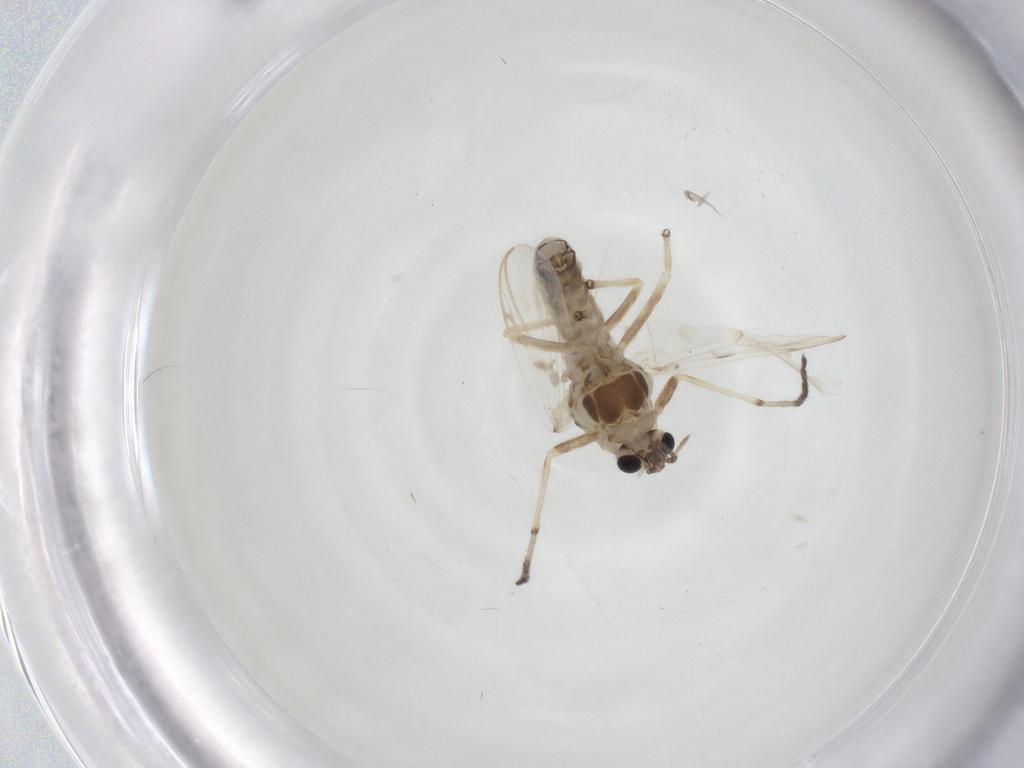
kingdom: Animalia
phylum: Arthropoda
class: Insecta
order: Diptera
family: Chironomidae
